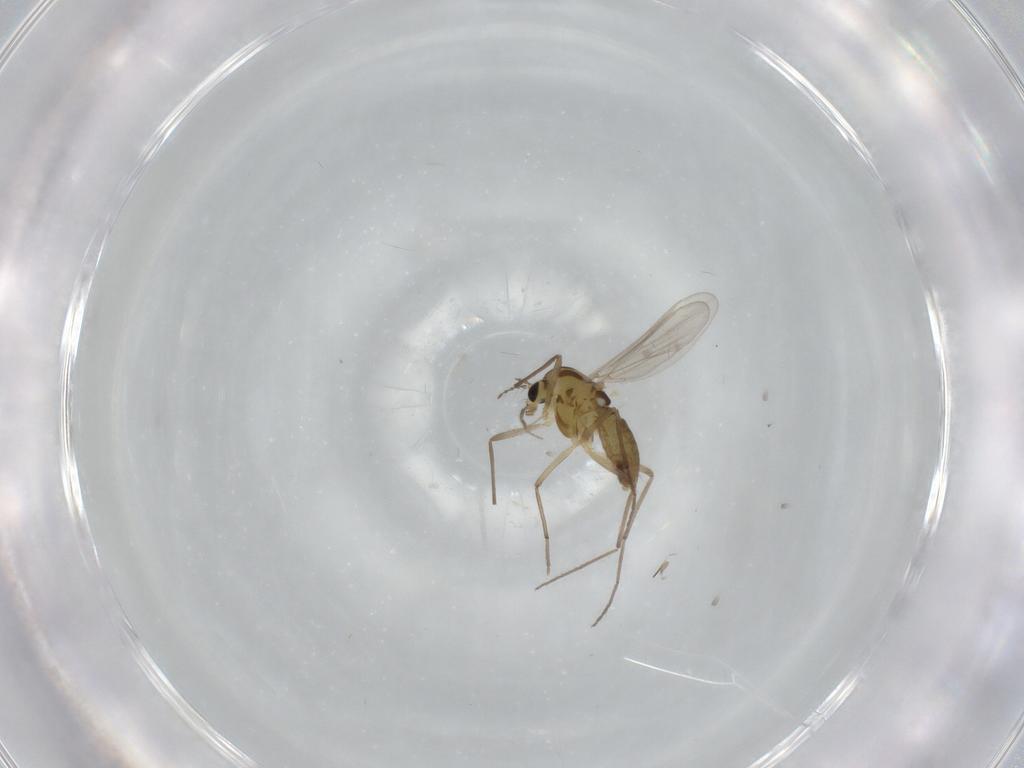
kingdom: Animalia
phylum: Arthropoda
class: Insecta
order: Diptera
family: Chironomidae
